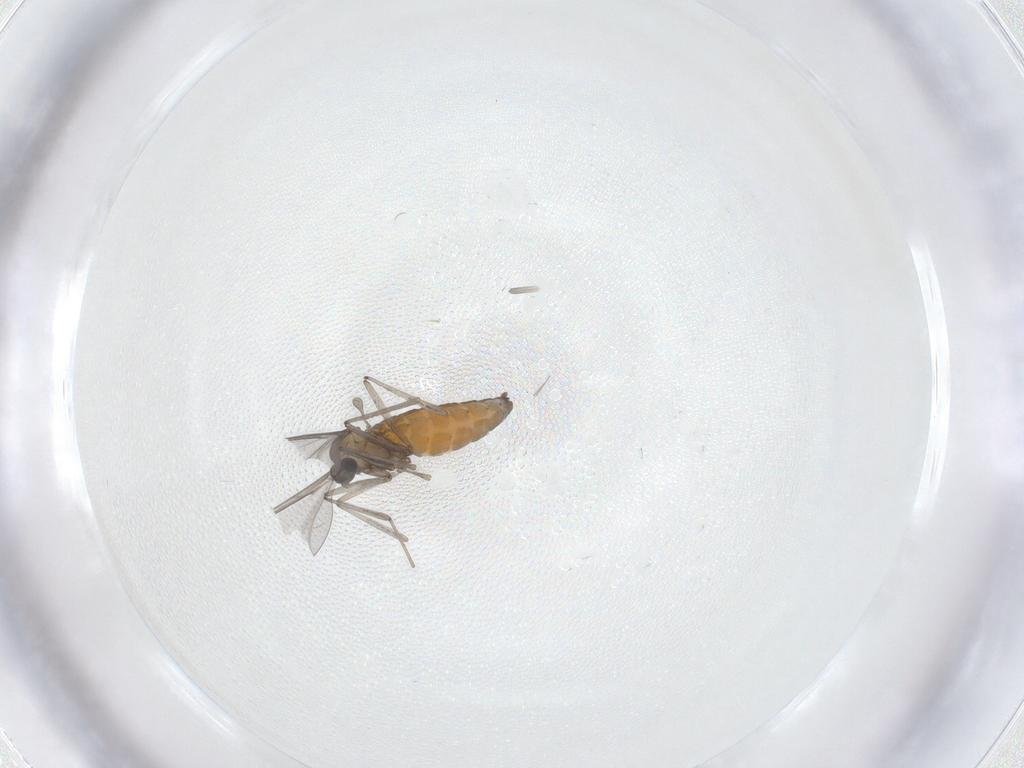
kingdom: Animalia
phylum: Arthropoda
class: Insecta
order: Diptera
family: Cecidomyiidae
